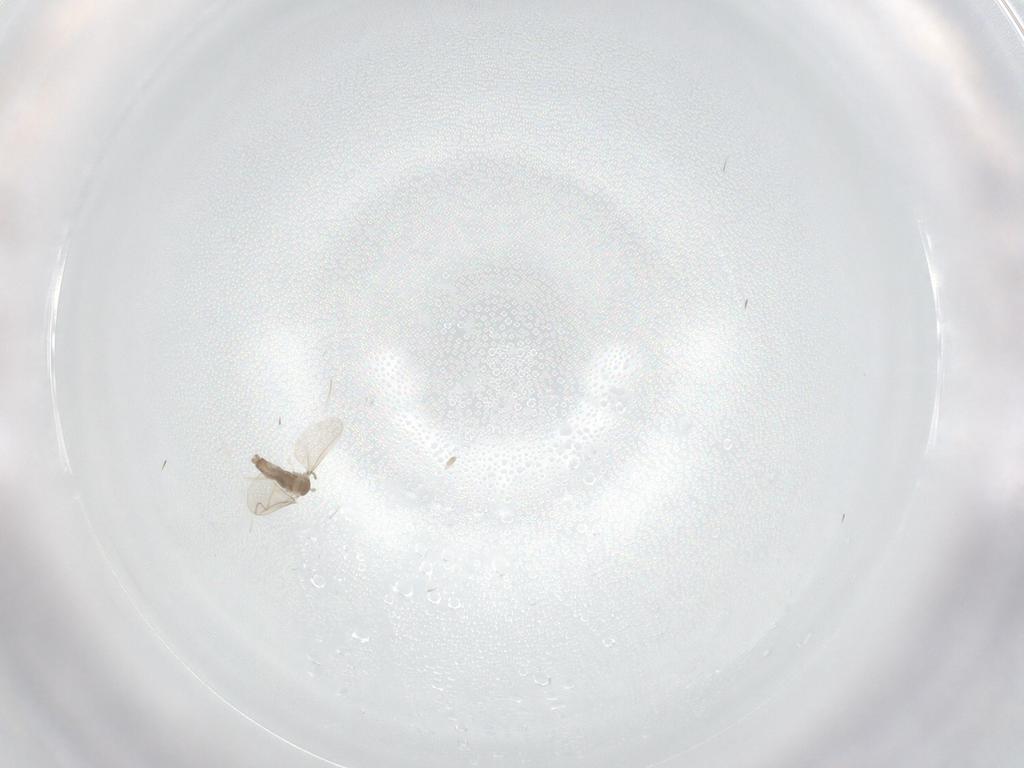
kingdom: Animalia
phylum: Arthropoda
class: Insecta
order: Diptera
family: Cecidomyiidae
